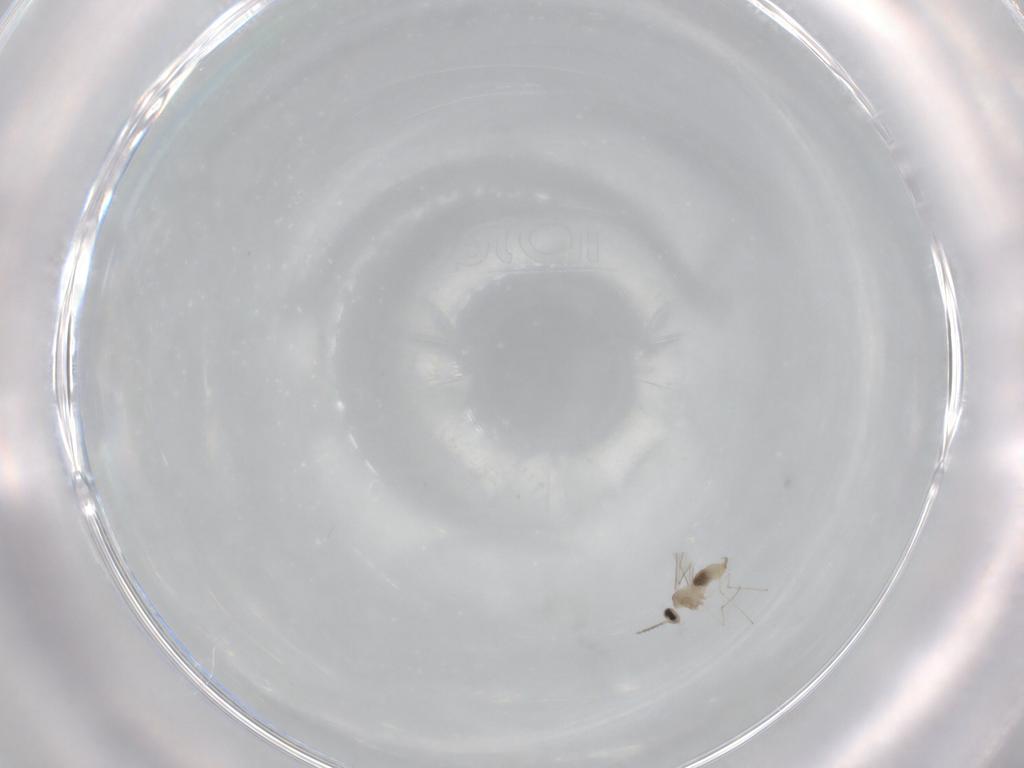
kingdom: Animalia
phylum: Arthropoda
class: Insecta
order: Diptera
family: Cecidomyiidae
